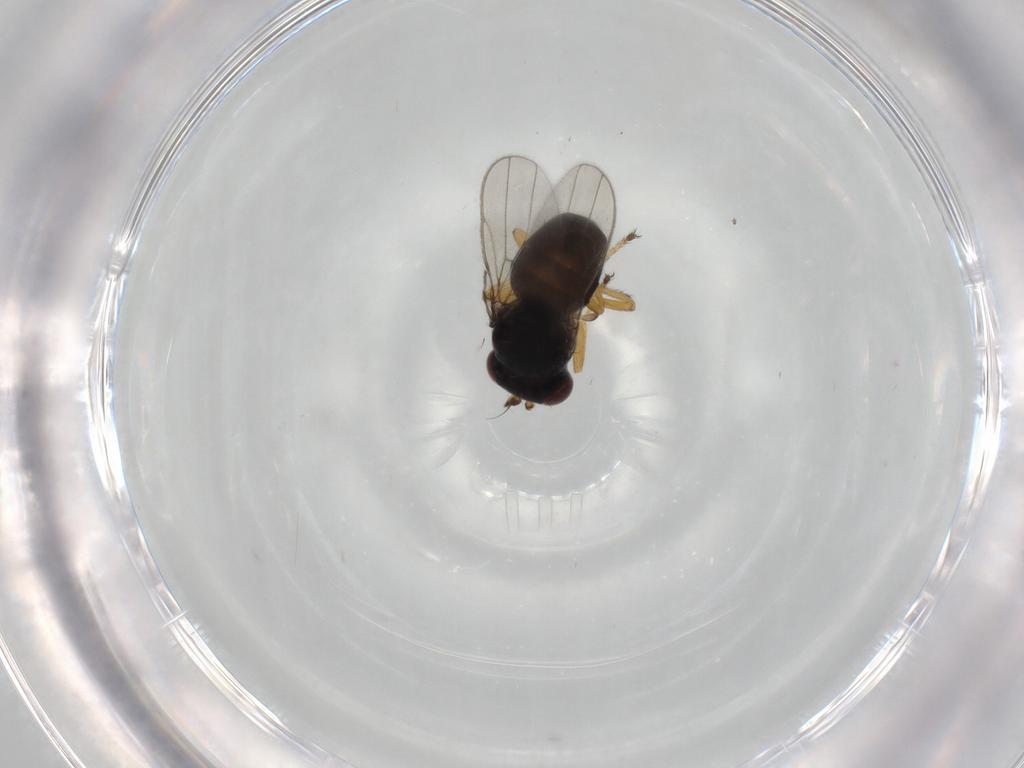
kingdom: Animalia
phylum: Arthropoda
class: Insecta
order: Diptera
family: Ephydridae
